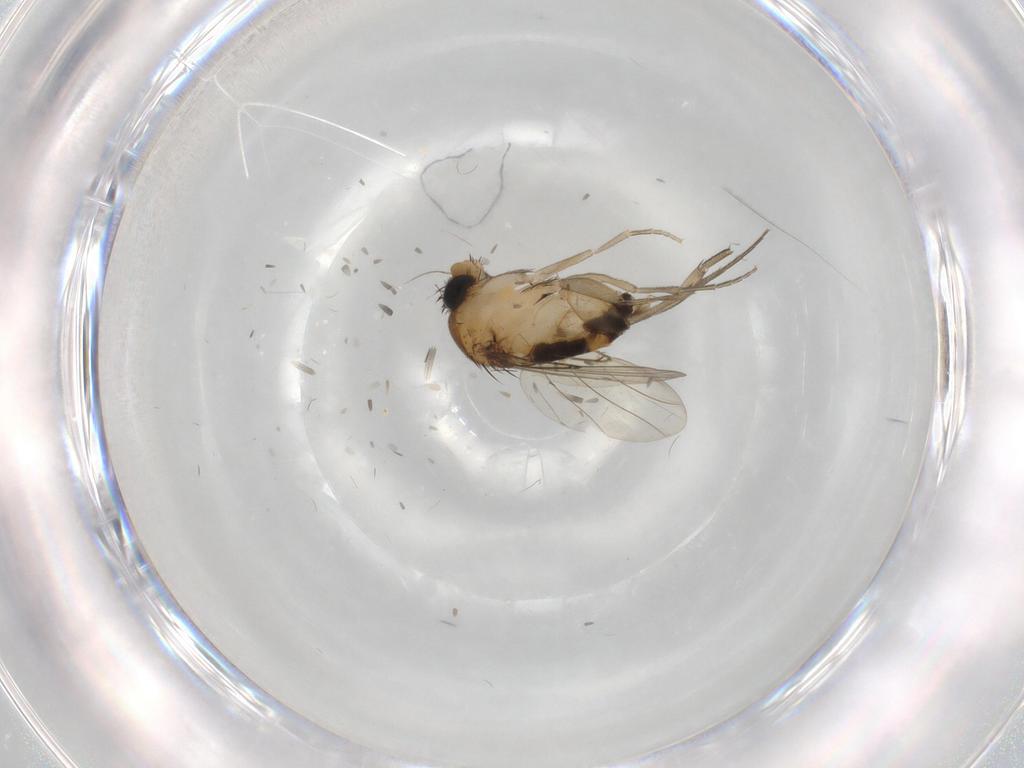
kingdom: Animalia
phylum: Arthropoda
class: Insecta
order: Diptera
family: Phoridae
